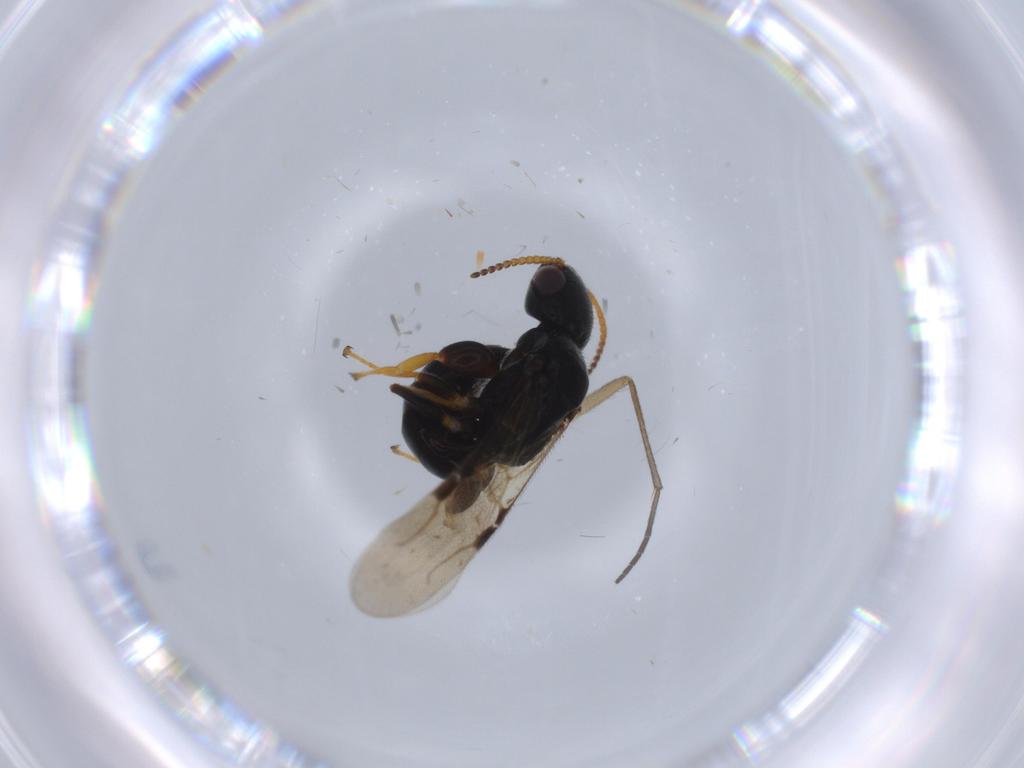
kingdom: Animalia
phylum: Arthropoda
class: Insecta
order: Hymenoptera
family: Bethylidae
